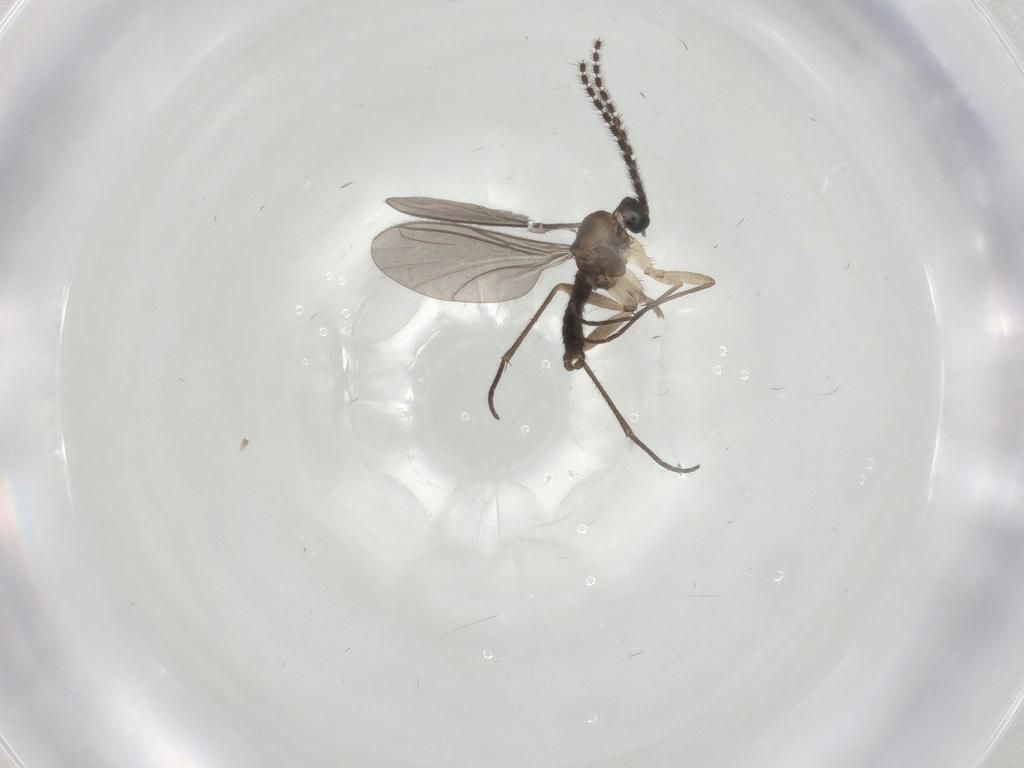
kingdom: Animalia
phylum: Arthropoda
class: Insecta
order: Diptera
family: Sciaridae
